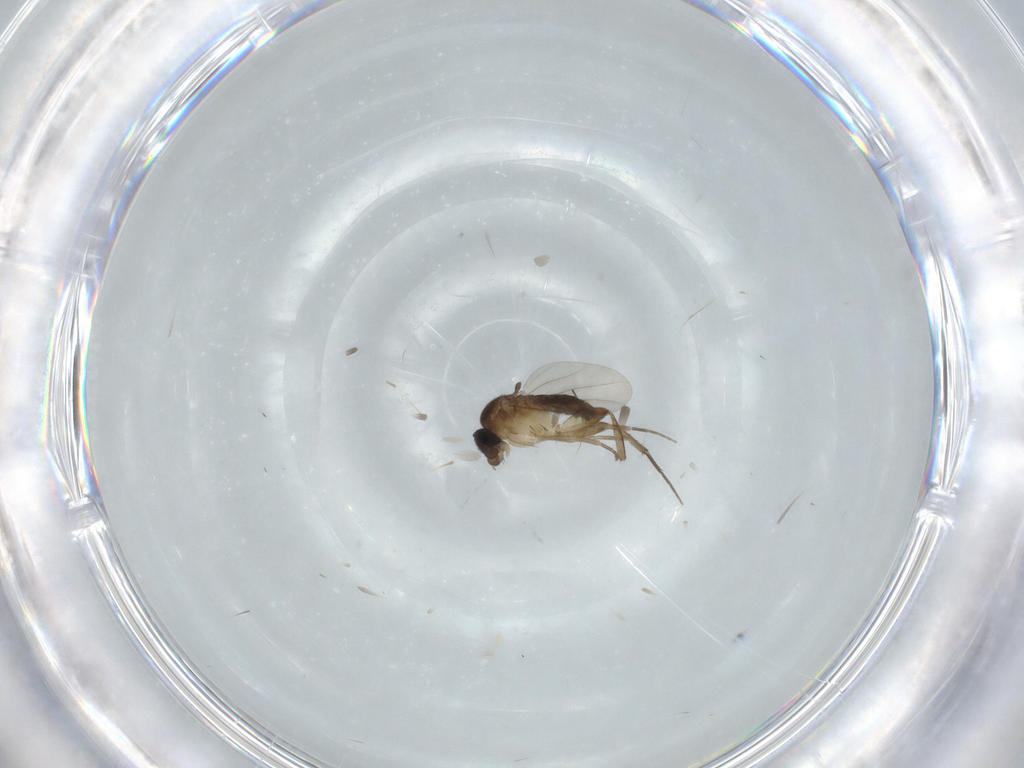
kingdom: Animalia
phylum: Arthropoda
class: Insecta
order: Diptera
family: Phoridae
